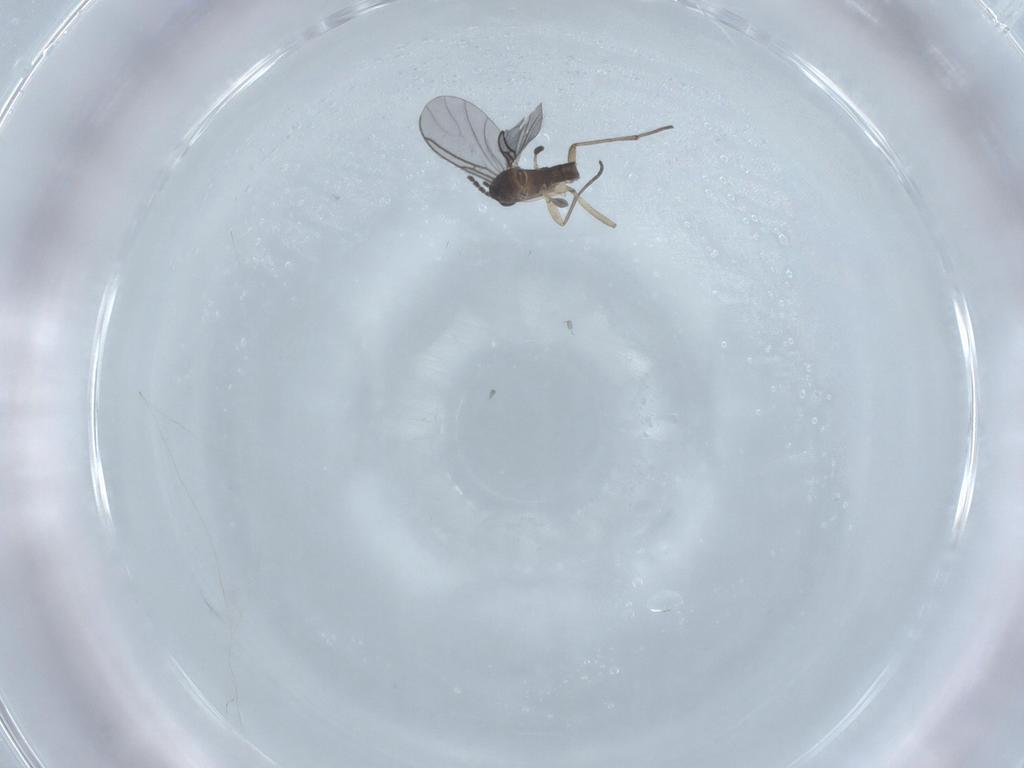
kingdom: Animalia
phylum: Arthropoda
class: Insecta
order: Diptera
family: Sciaridae
